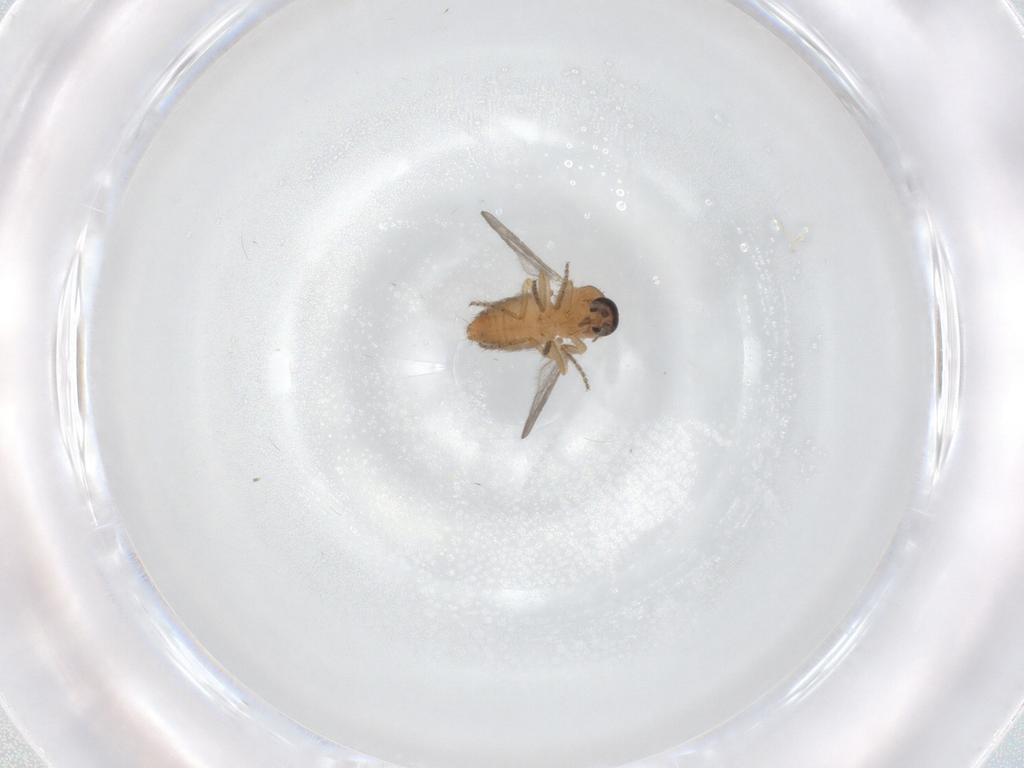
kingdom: Animalia
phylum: Arthropoda
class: Insecta
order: Diptera
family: Ceratopogonidae
